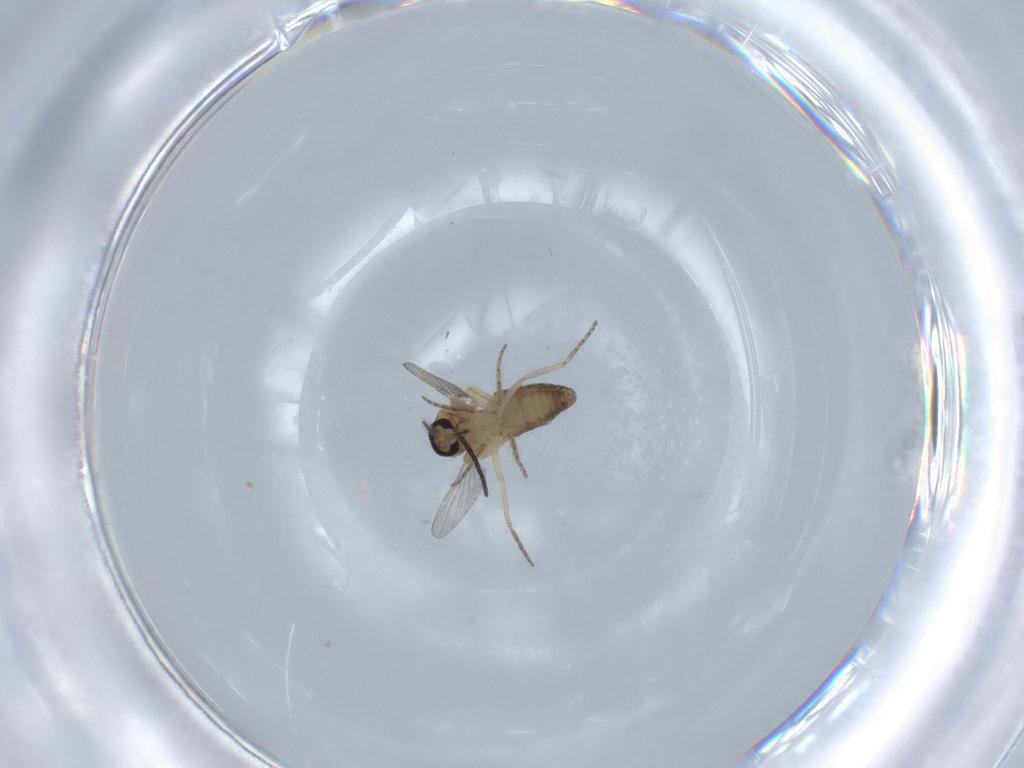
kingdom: Animalia
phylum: Arthropoda
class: Insecta
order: Diptera
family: Ceratopogonidae
